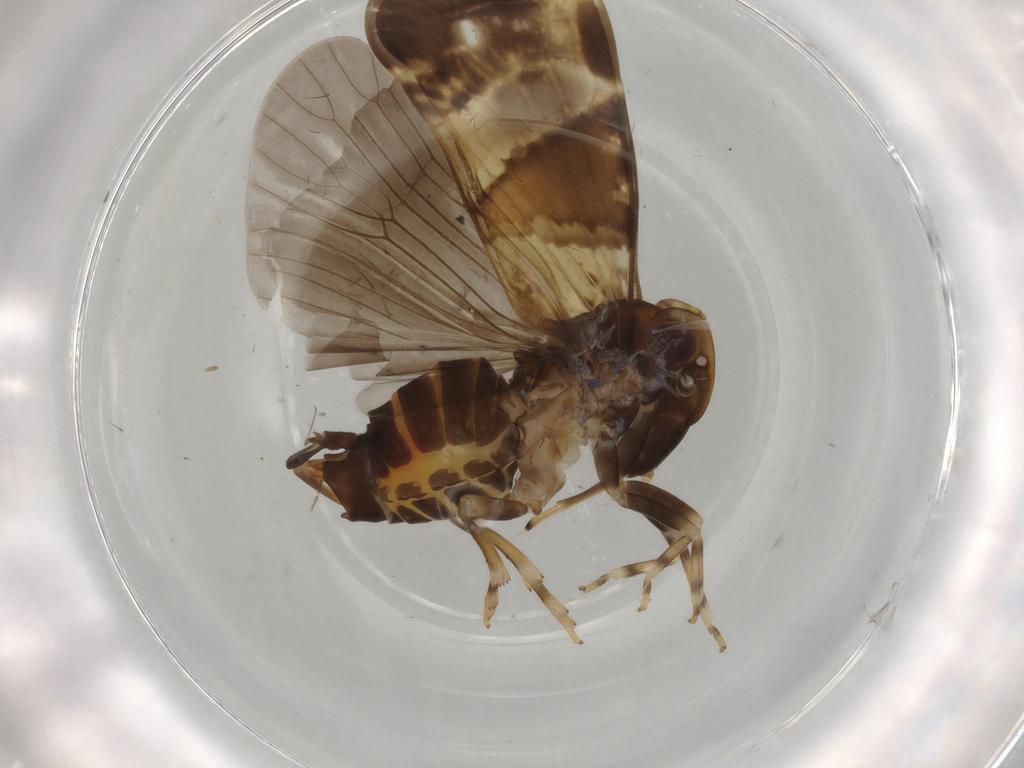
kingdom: Animalia
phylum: Arthropoda
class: Insecta
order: Hemiptera
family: Cixiidae
